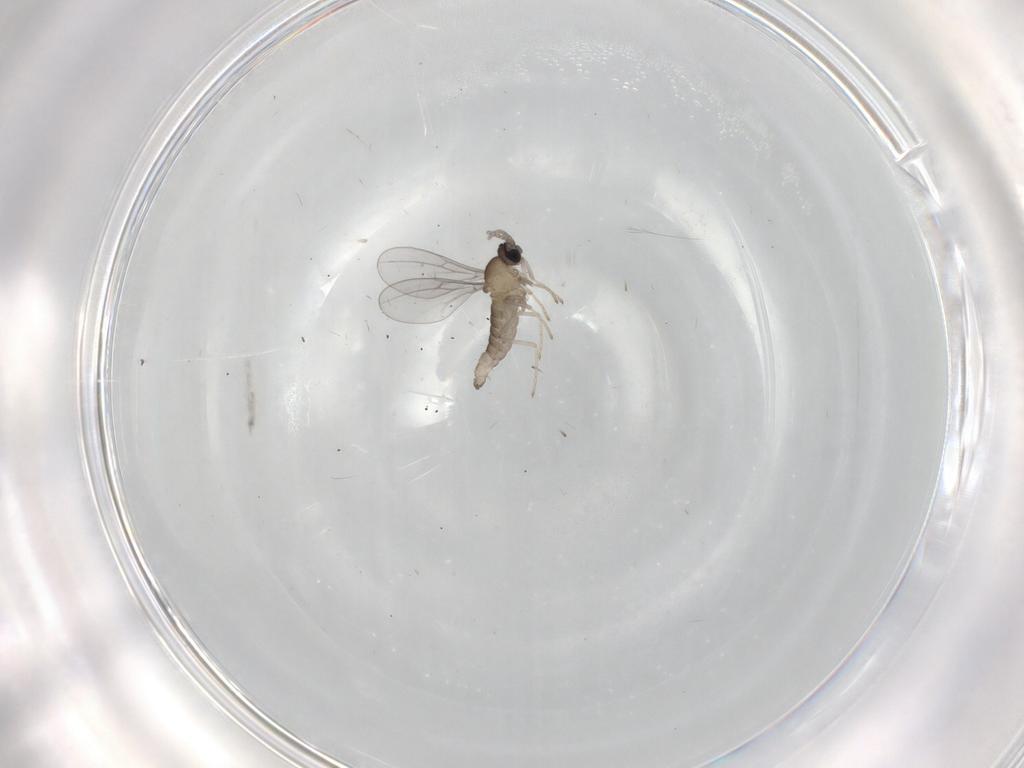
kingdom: Animalia
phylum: Arthropoda
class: Insecta
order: Diptera
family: Cecidomyiidae
